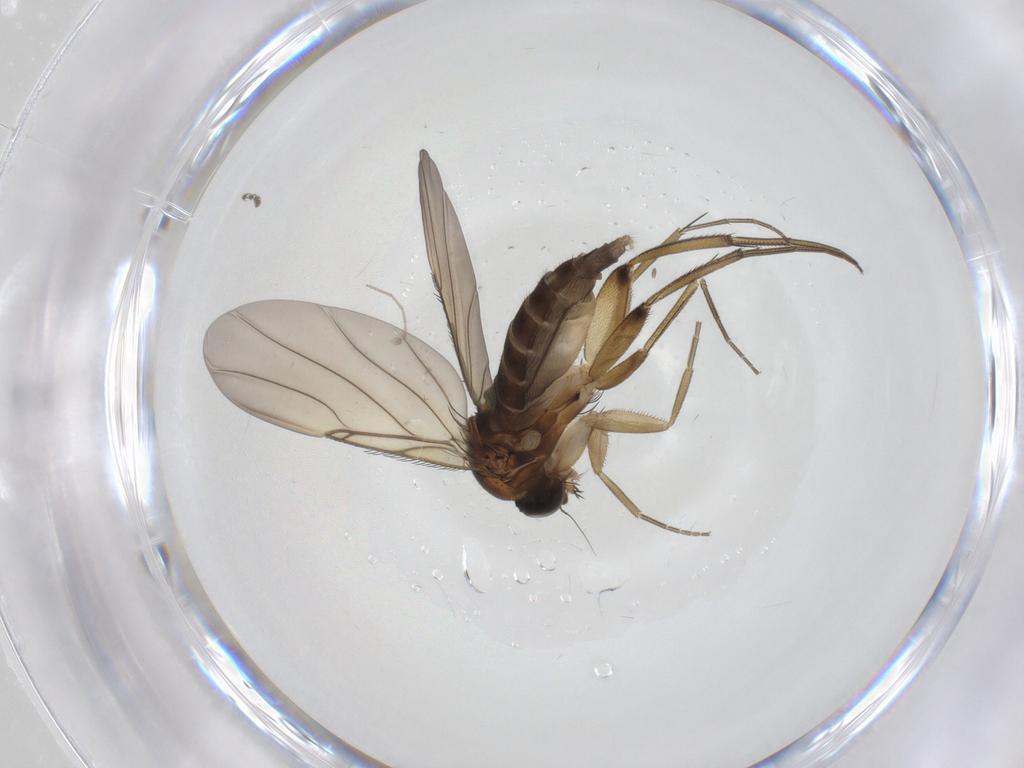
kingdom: Animalia
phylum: Arthropoda
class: Insecta
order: Diptera
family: Phoridae
